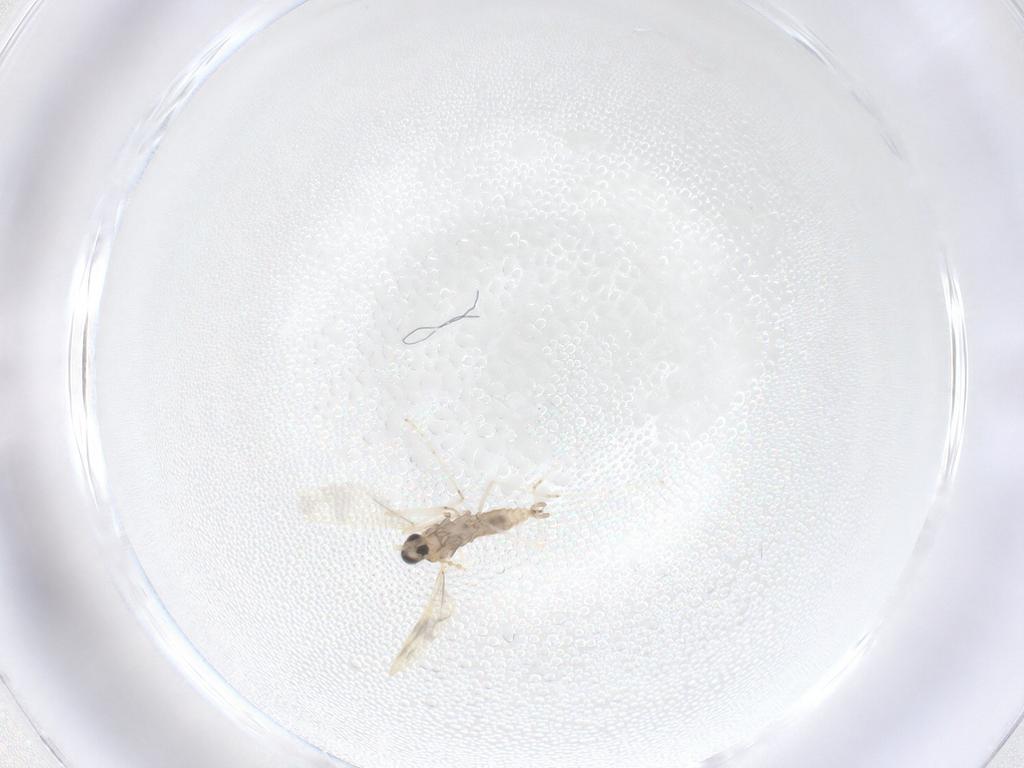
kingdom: Animalia
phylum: Arthropoda
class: Insecta
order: Diptera
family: Cecidomyiidae
